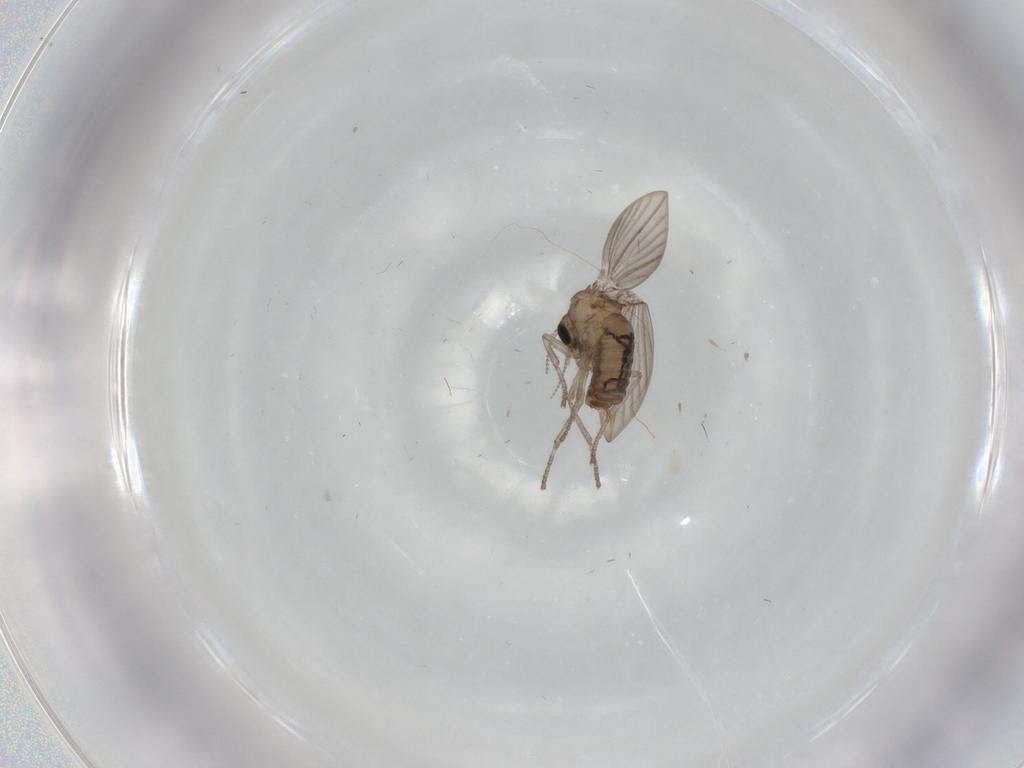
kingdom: Animalia
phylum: Arthropoda
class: Insecta
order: Diptera
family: Psychodidae
